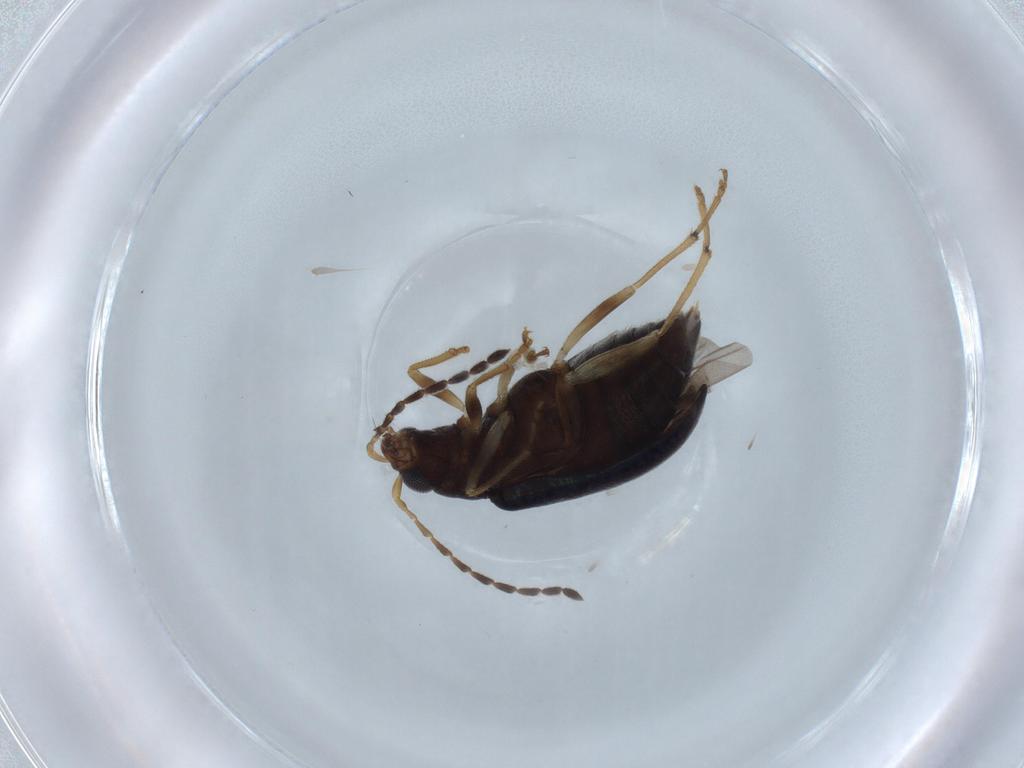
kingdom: Animalia
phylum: Arthropoda
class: Insecta
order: Coleoptera
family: Chrysomelidae
